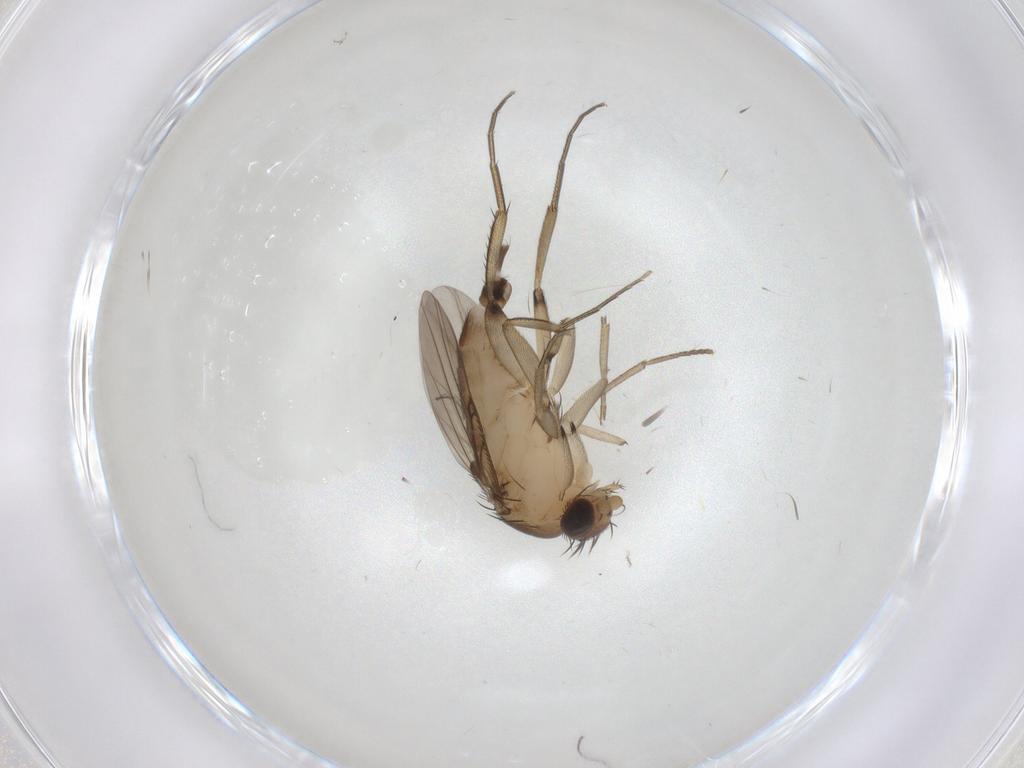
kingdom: Animalia
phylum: Arthropoda
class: Insecta
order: Diptera
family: Phoridae
